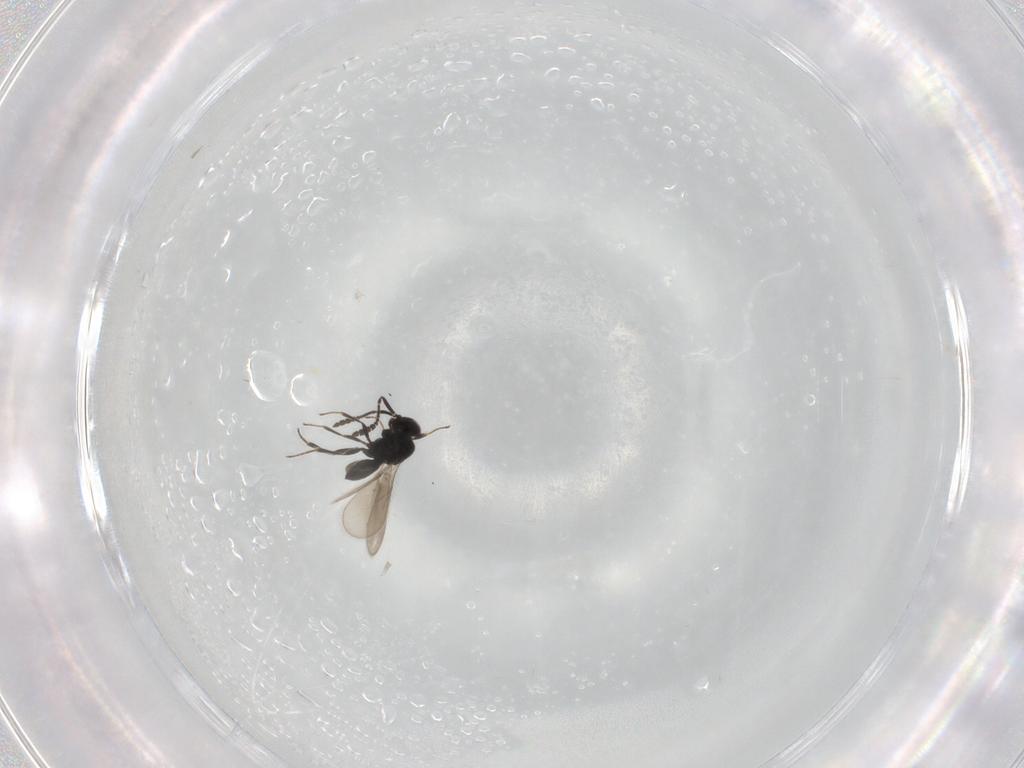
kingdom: Animalia
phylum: Arthropoda
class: Insecta
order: Hymenoptera
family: Scelionidae
